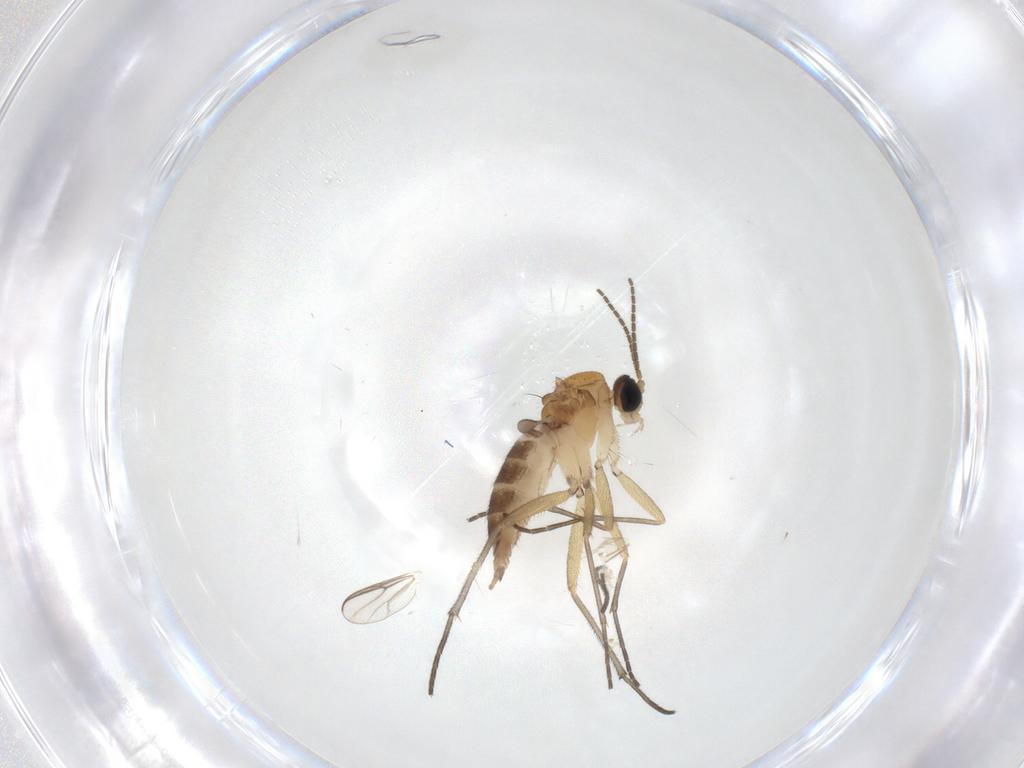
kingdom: Animalia
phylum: Arthropoda
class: Insecta
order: Diptera
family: Sciaridae
